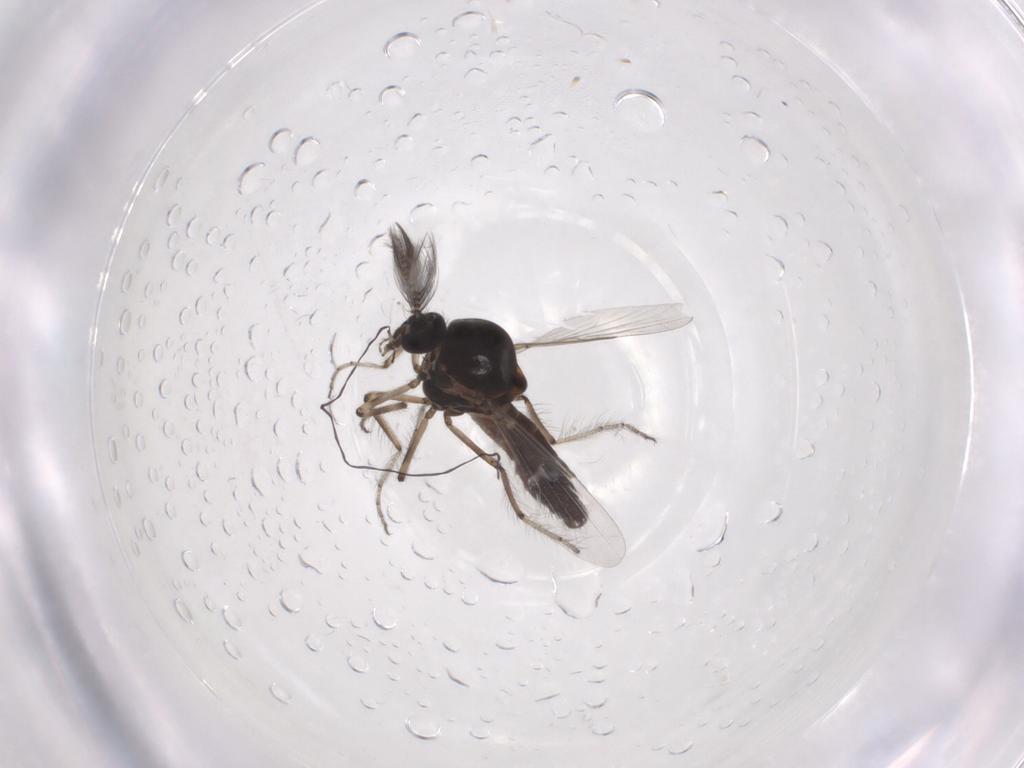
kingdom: Animalia
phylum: Arthropoda
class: Insecta
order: Diptera
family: Ceratopogonidae
